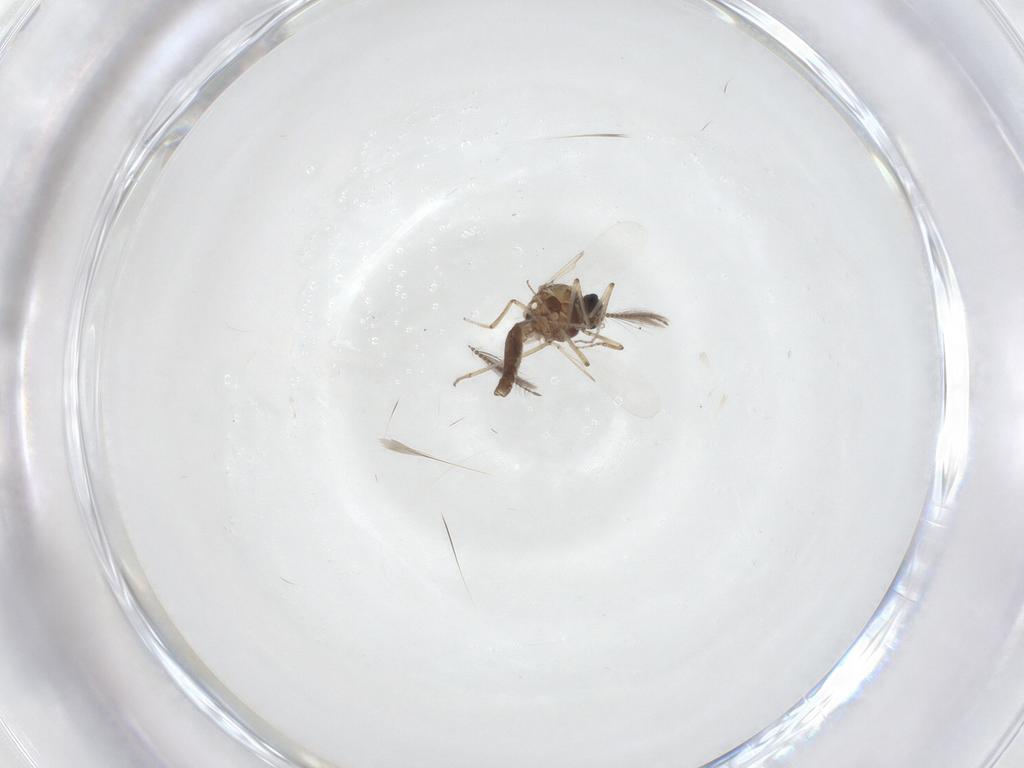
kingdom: Animalia
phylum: Arthropoda
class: Insecta
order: Diptera
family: Ceratopogonidae
